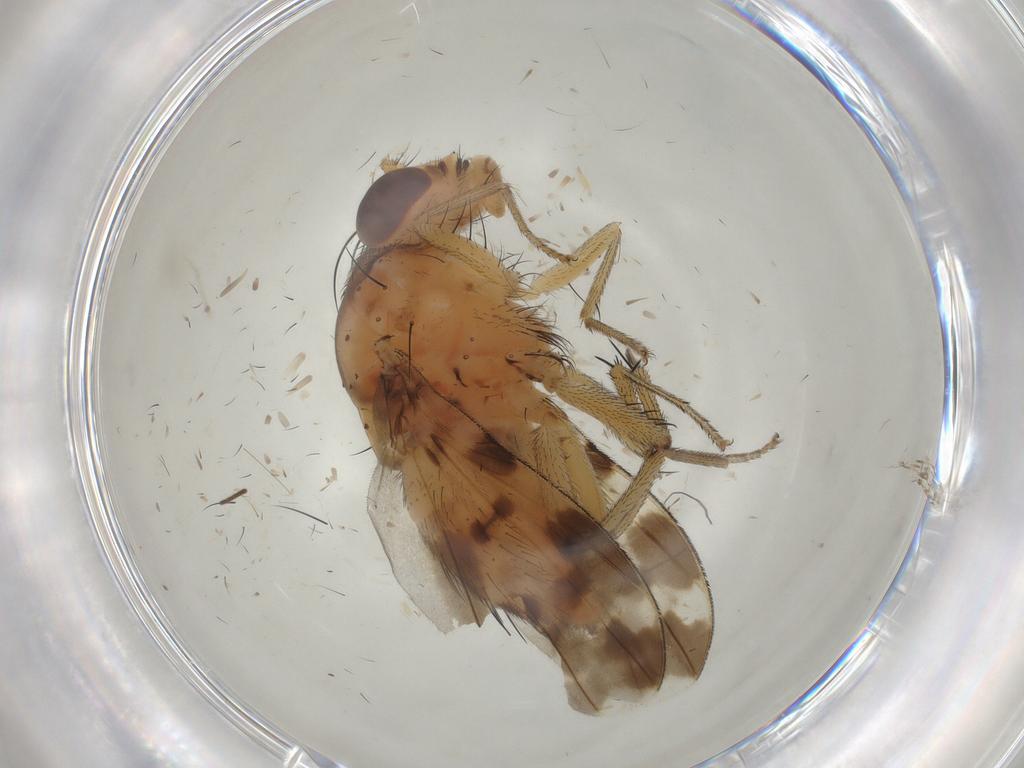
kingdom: Animalia
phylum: Arthropoda
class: Insecta
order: Diptera
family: Sciaridae
